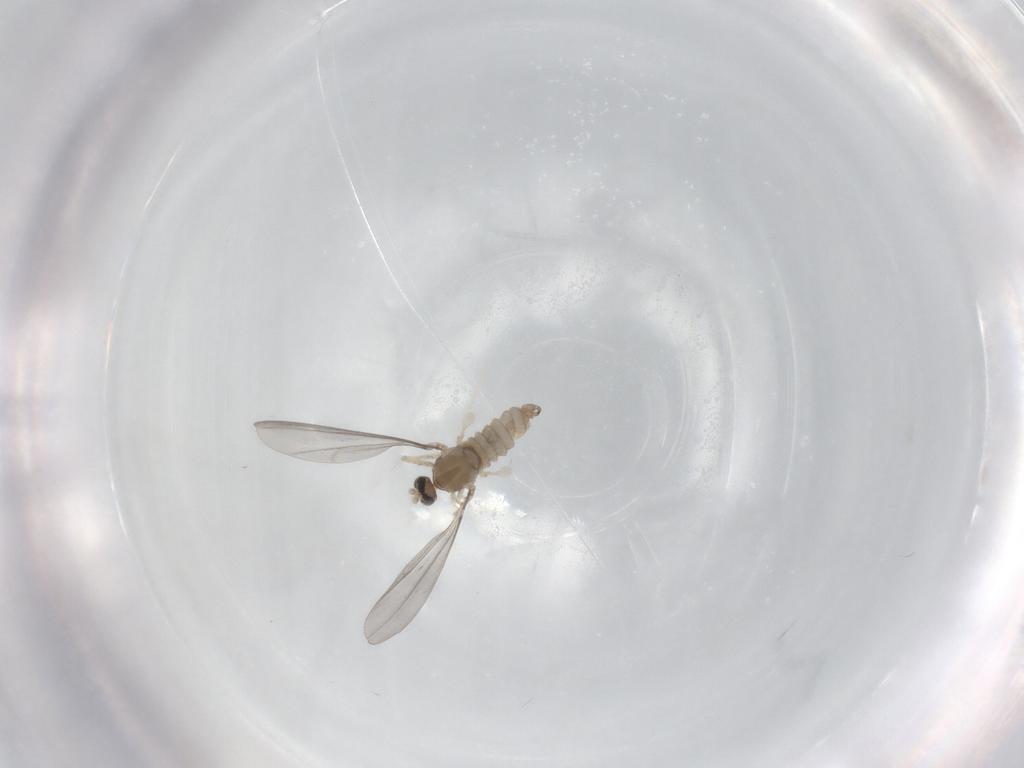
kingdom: Animalia
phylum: Arthropoda
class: Insecta
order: Diptera
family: Cecidomyiidae
